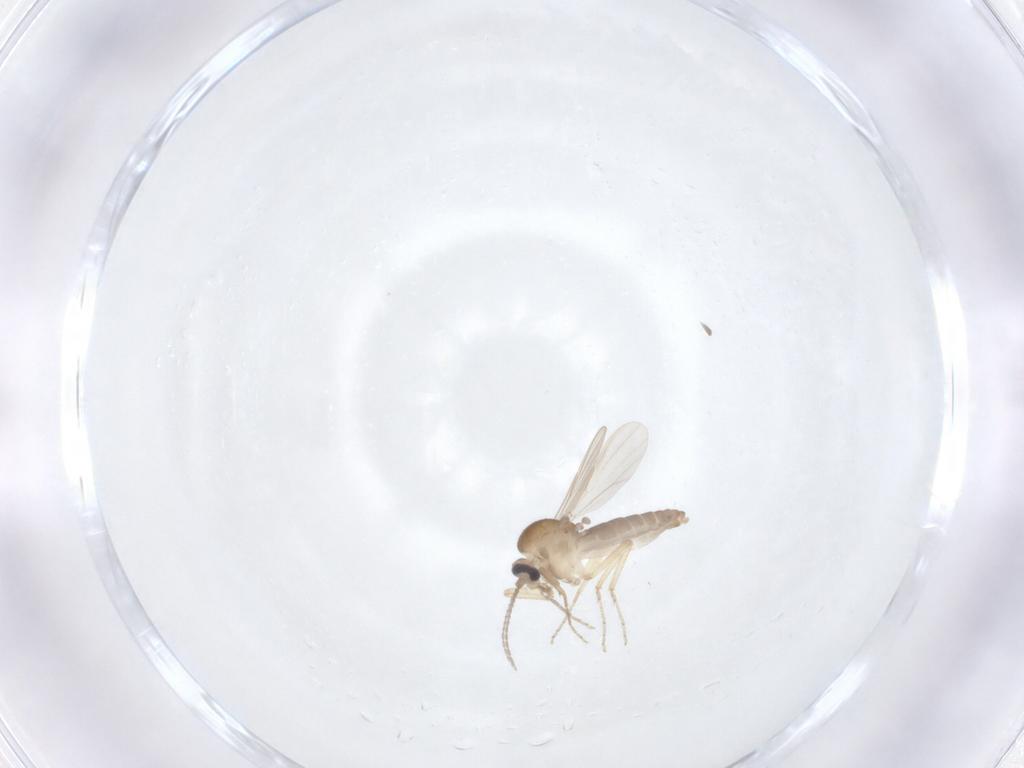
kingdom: Animalia
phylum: Arthropoda
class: Insecta
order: Diptera
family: Ceratopogonidae
